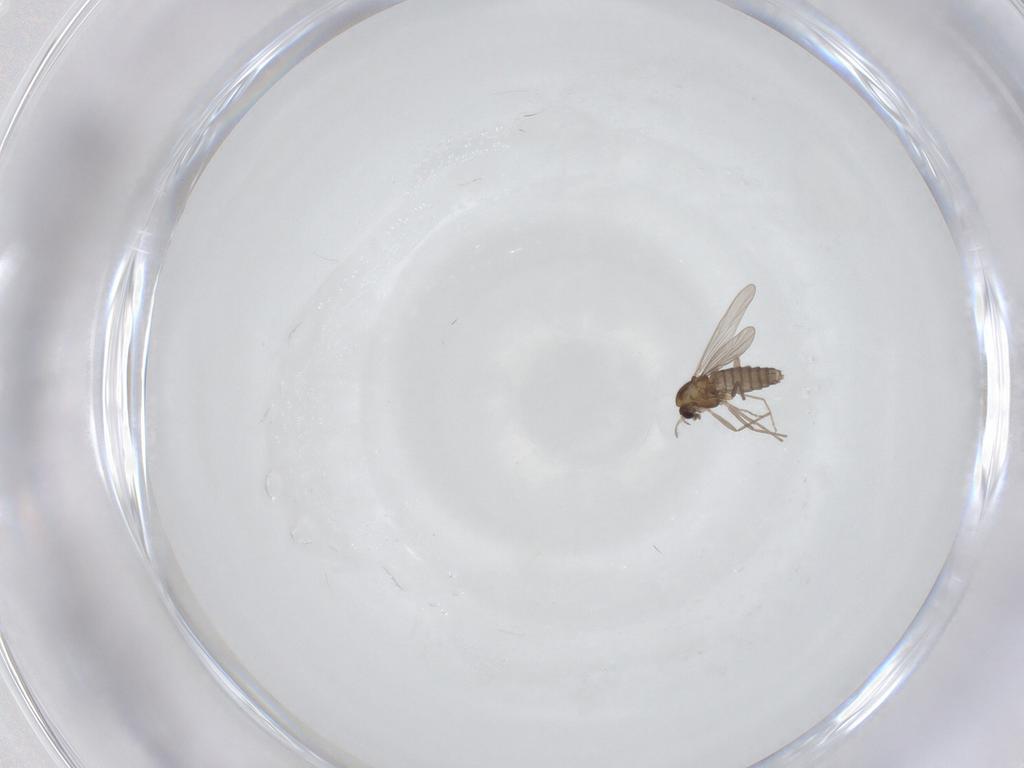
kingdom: Animalia
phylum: Arthropoda
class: Insecta
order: Diptera
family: Chironomidae
